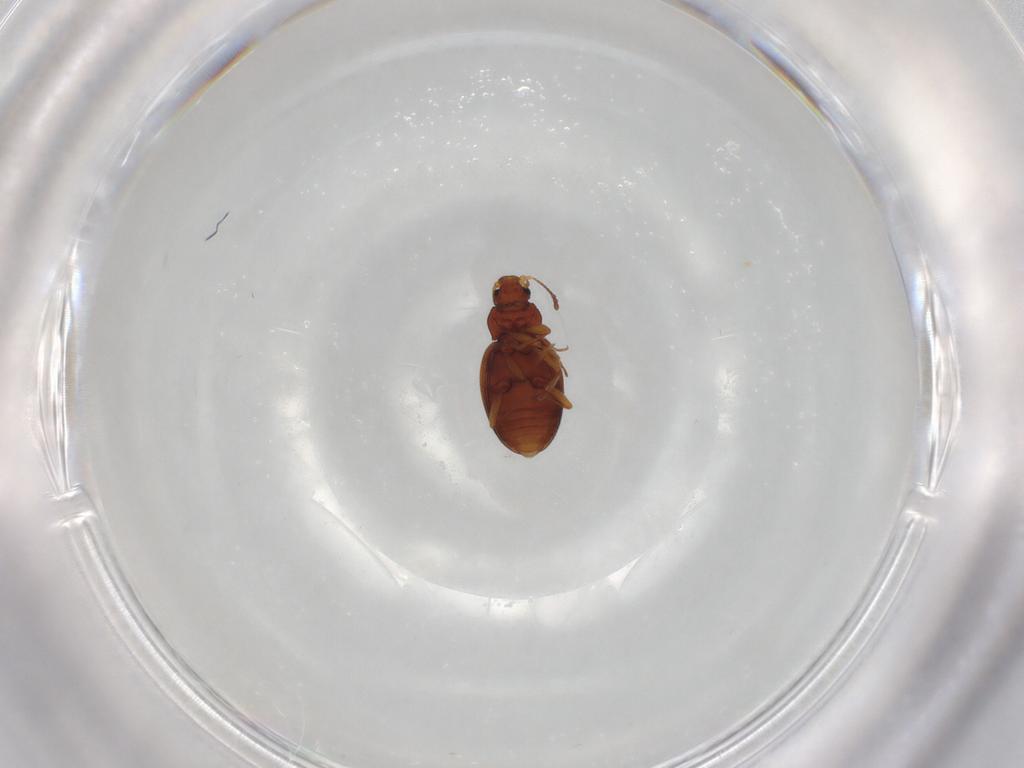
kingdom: Animalia
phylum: Arthropoda
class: Insecta
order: Coleoptera
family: Latridiidae
